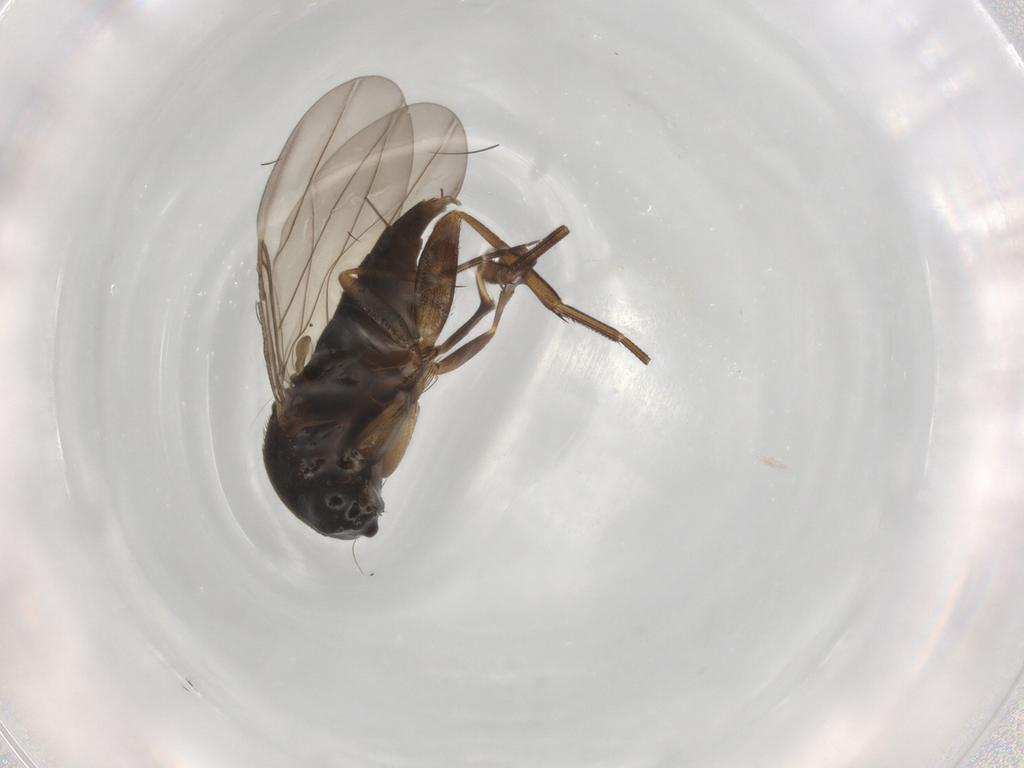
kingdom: Animalia
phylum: Arthropoda
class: Insecta
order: Diptera
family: Phoridae
